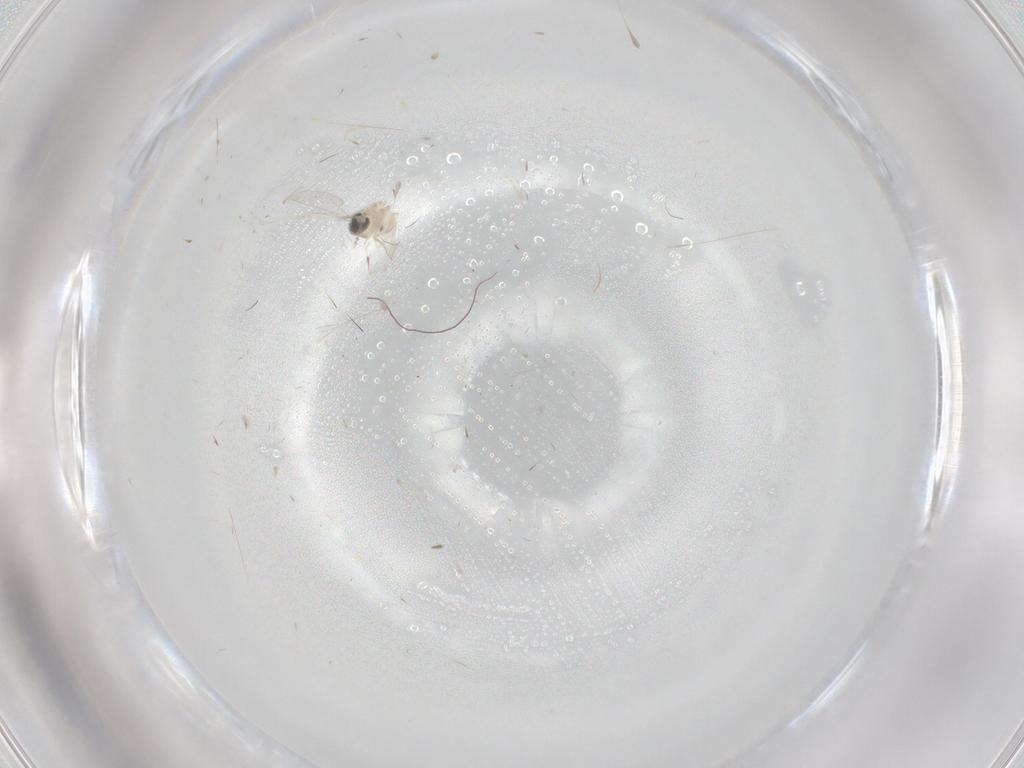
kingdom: Animalia
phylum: Arthropoda
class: Insecta
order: Diptera
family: Cecidomyiidae
